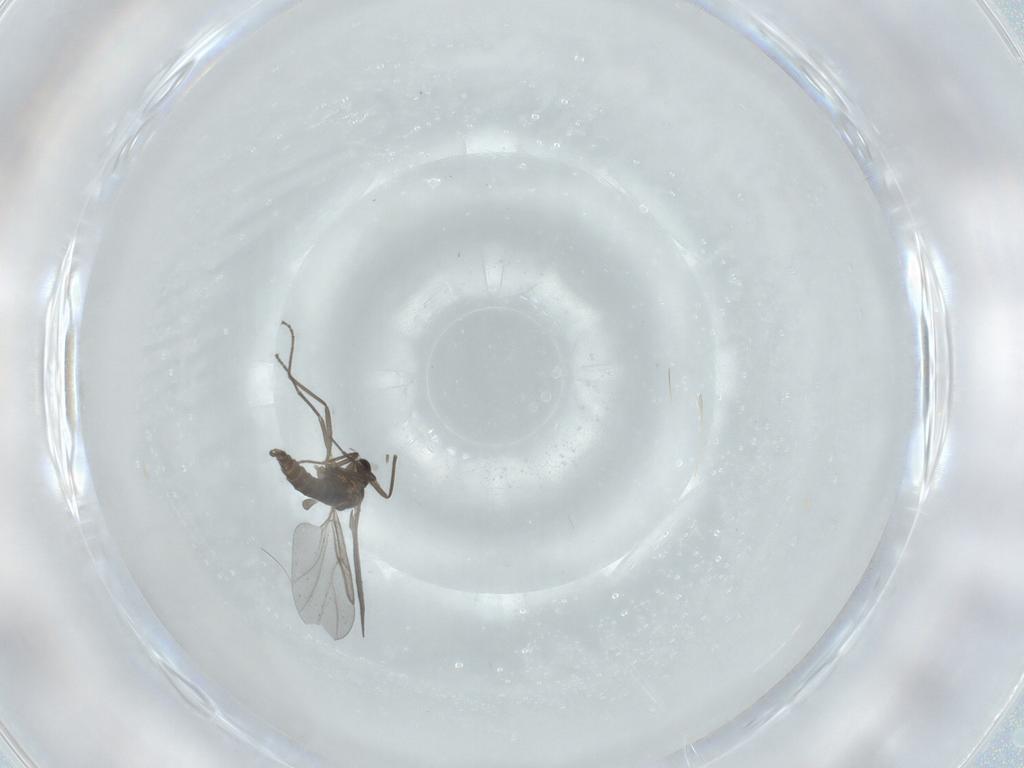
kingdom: Animalia
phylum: Arthropoda
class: Insecta
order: Diptera
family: Cecidomyiidae
